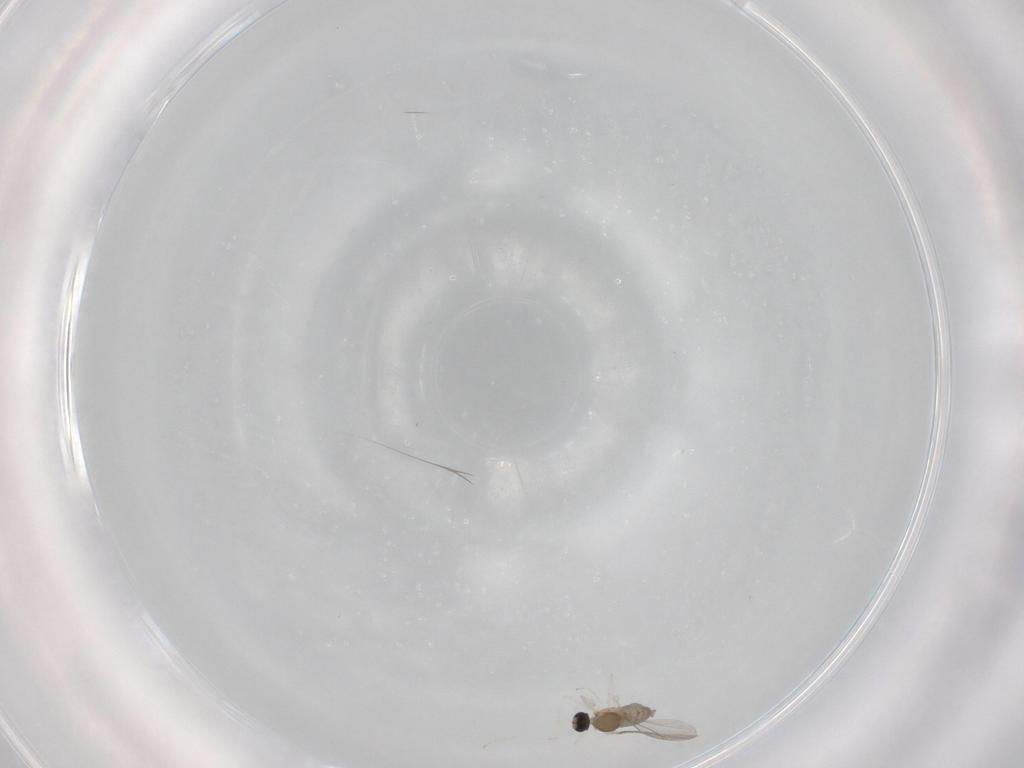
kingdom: Animalia
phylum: Arthropoda
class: Insecta
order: Diptera
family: Cecidomyiidae
